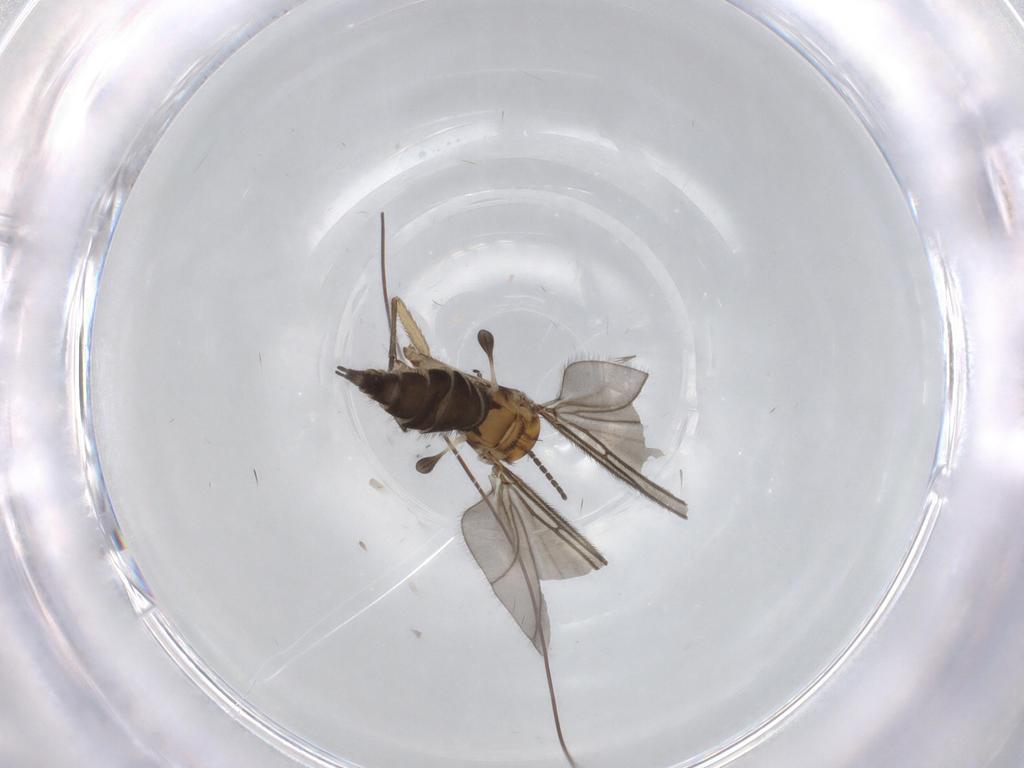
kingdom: Animalia
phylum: Arthropoda
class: Insecta
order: Diptera
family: Sciaridae
